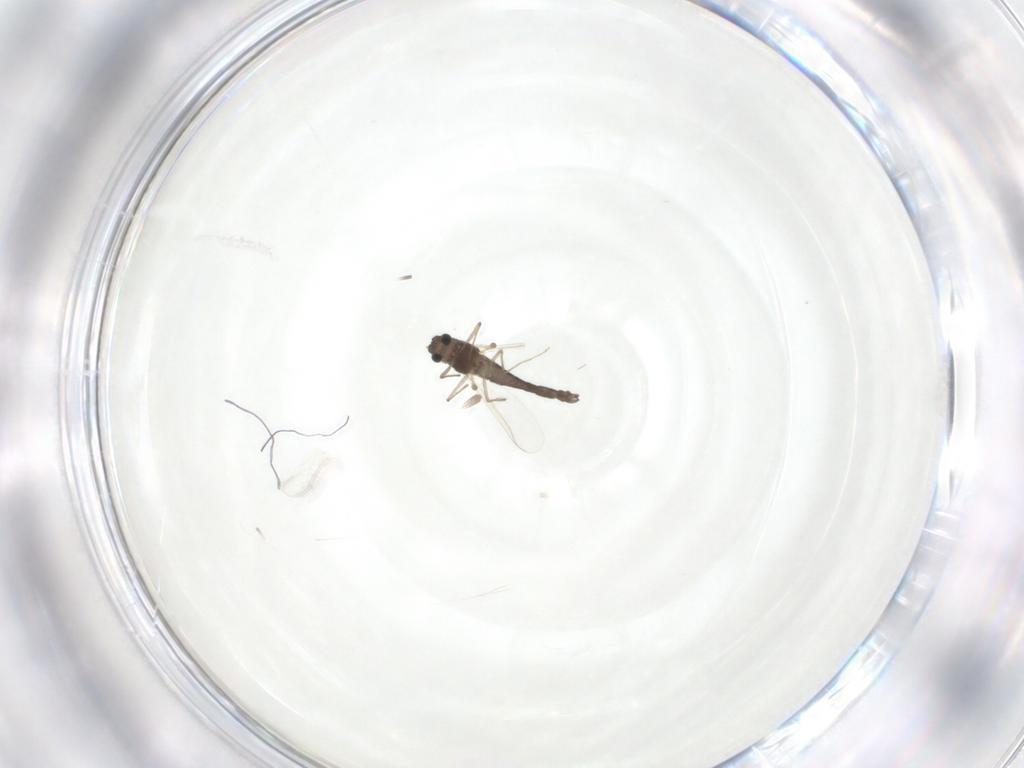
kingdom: Animalia
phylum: Arthropoda
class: Insecta
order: Diptera
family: Chironomidae
